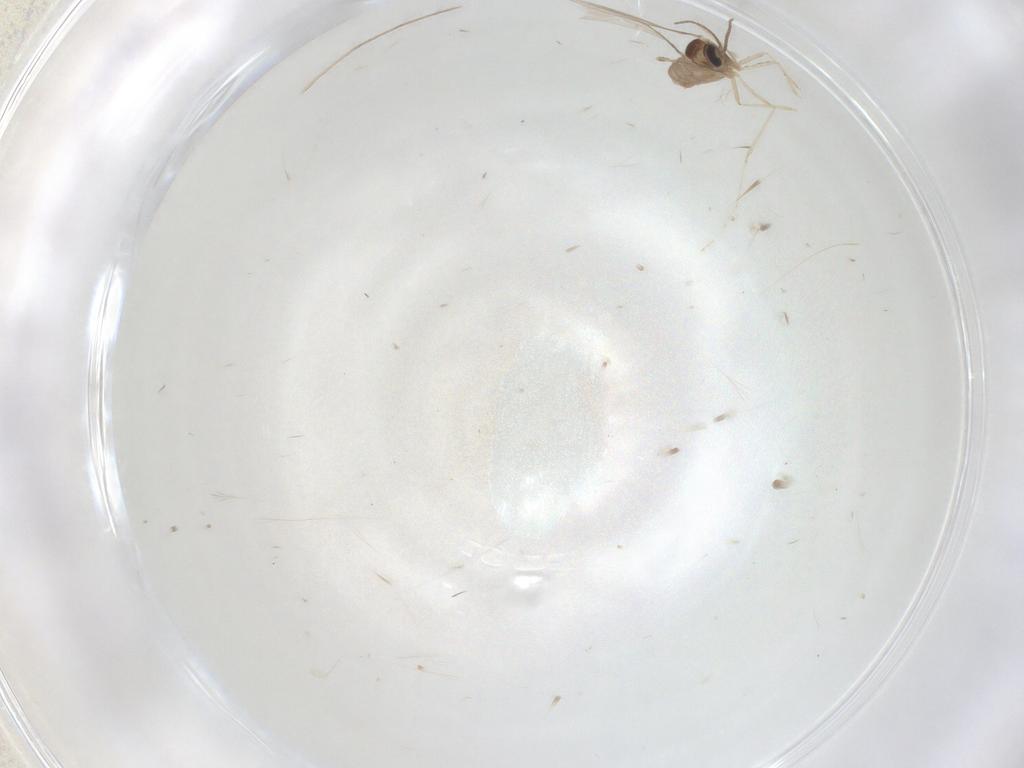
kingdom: Animalia
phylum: Arthropoda
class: Insecta
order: Diptera
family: Cecidomyiidae
